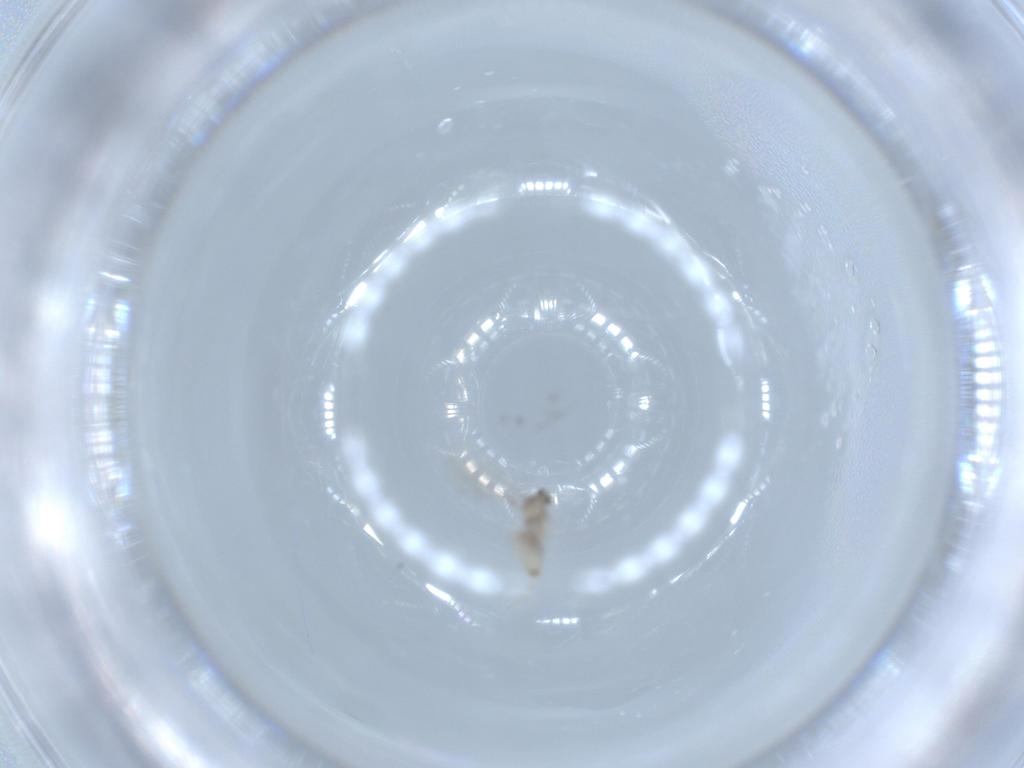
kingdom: Animalia
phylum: Arthropoda
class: Insecta
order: Diptera
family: Cecidomyiidae
